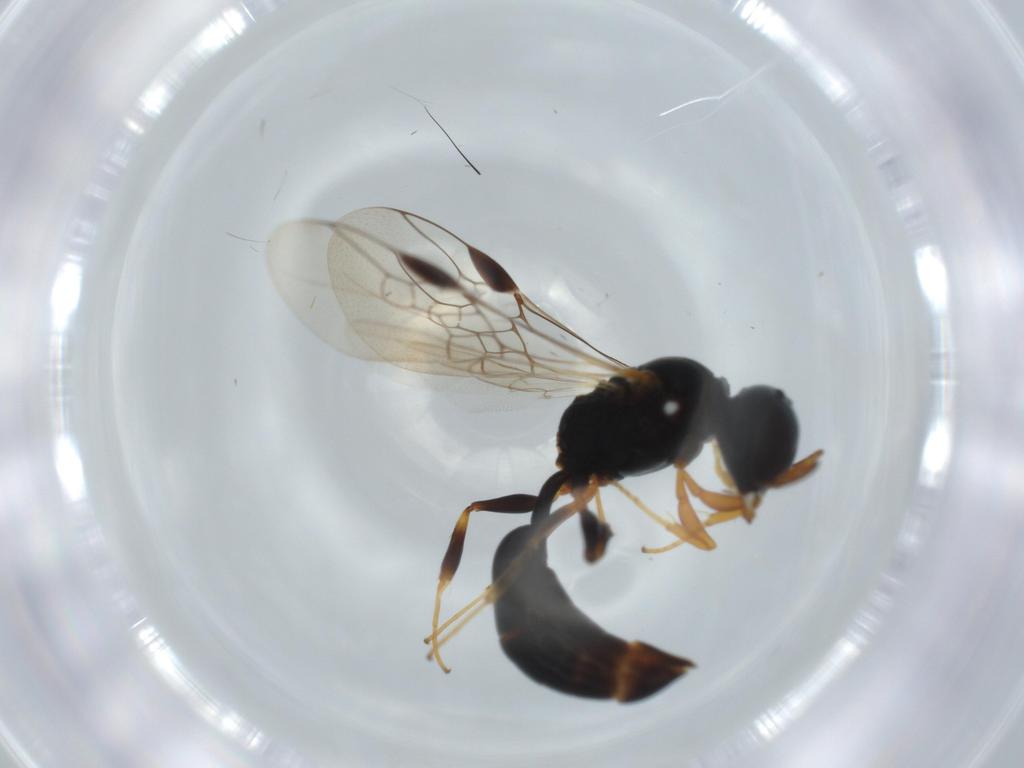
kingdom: Animalia
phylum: Arthropoda
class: Insecta
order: Hymenoptera
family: Crabronidae
